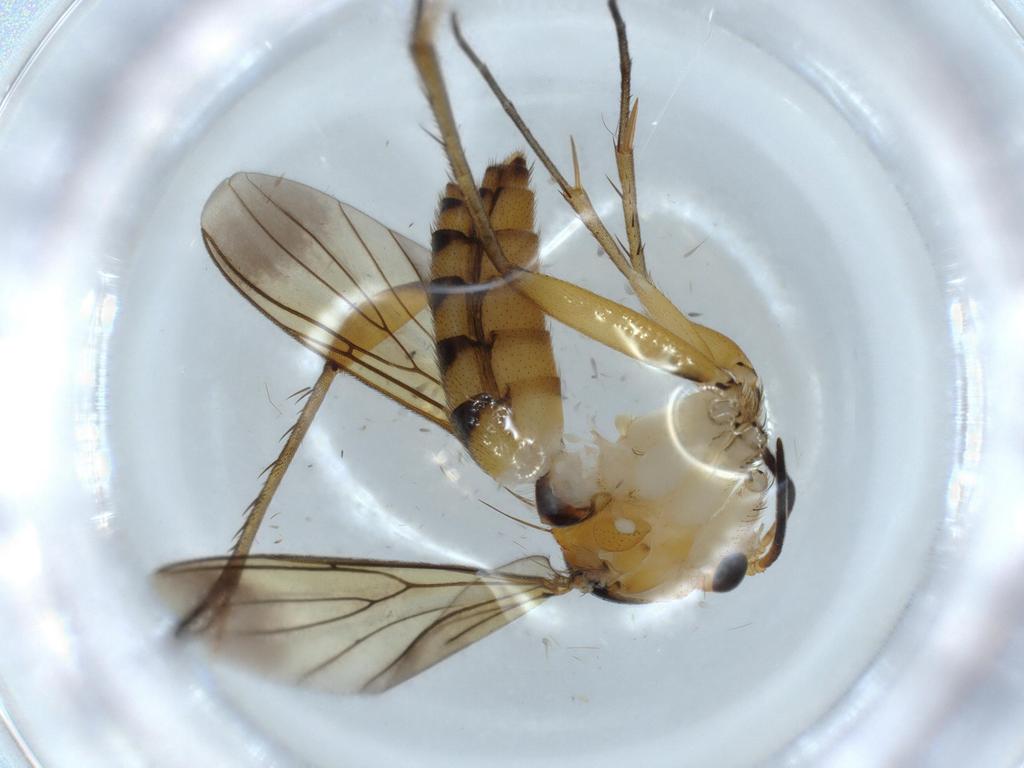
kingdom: Animalia
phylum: Arthropoda
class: Insecta
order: Diptera
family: Mycetophilidae
